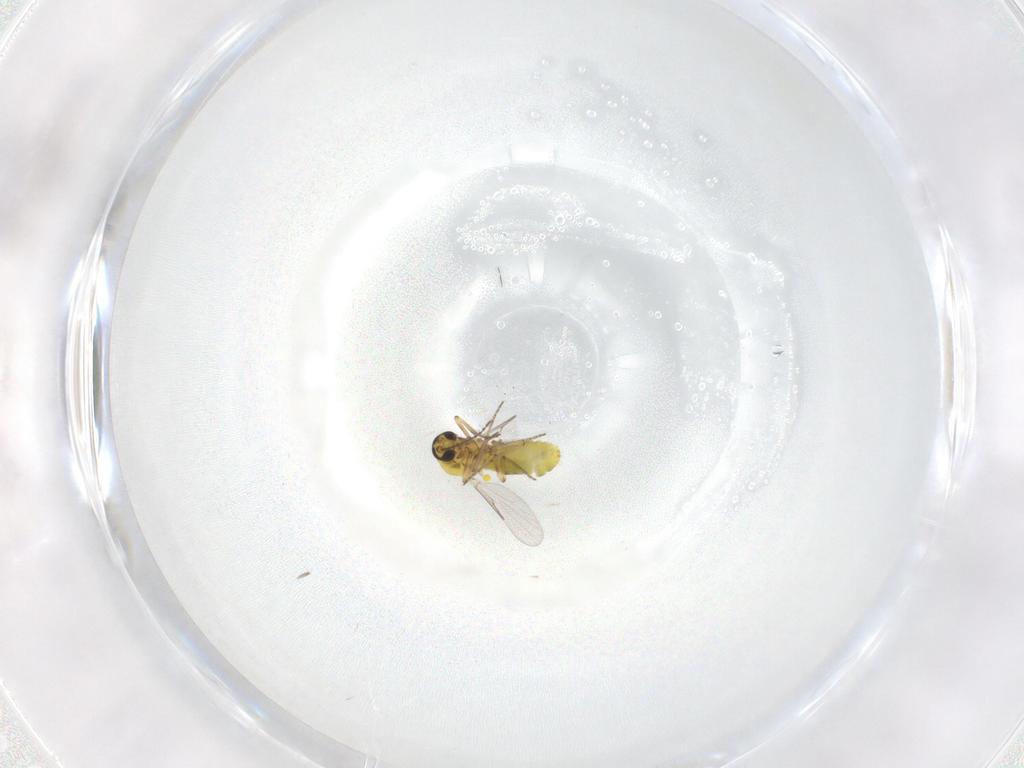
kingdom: Animalia
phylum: Arthropoda
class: Insecta
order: Diptera
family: Ceratopogonidae
